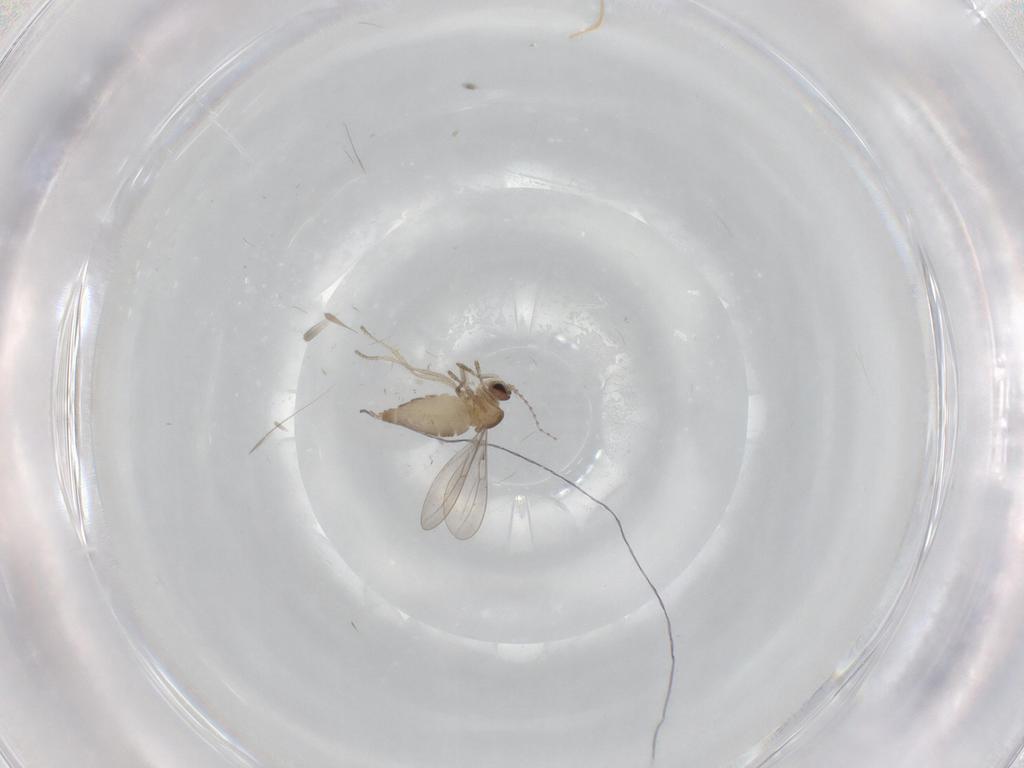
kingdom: Animalia
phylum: Arthropoda
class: Insecta
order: Diptera
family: Cecidomyiidae
